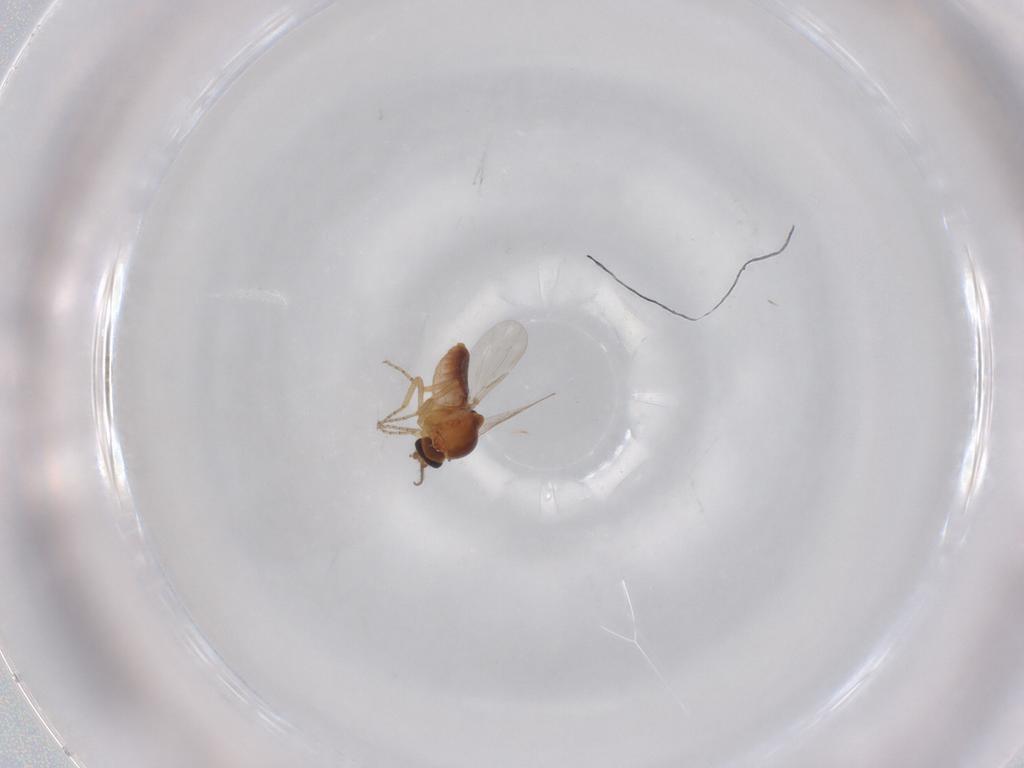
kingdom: Animalia
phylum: Arthropoda
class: Insecta
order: Diptera
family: Ceratopogonidae
